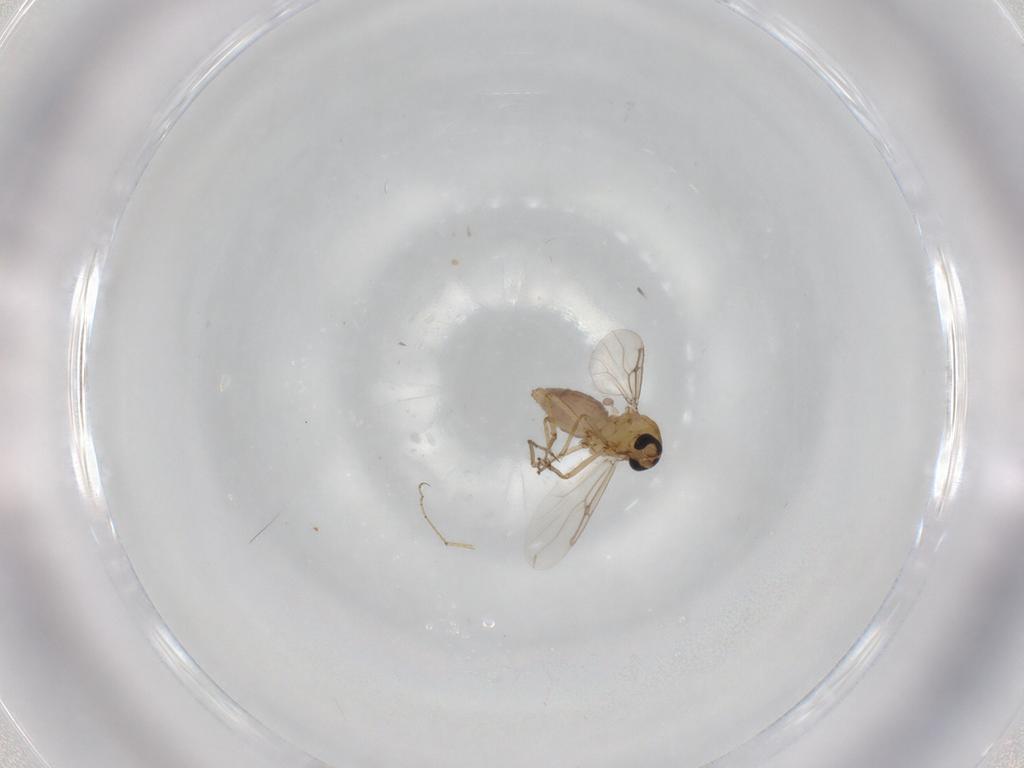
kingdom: Animalia
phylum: Arthropoda
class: Insecta
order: Diptera
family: Ceratopogonidae
